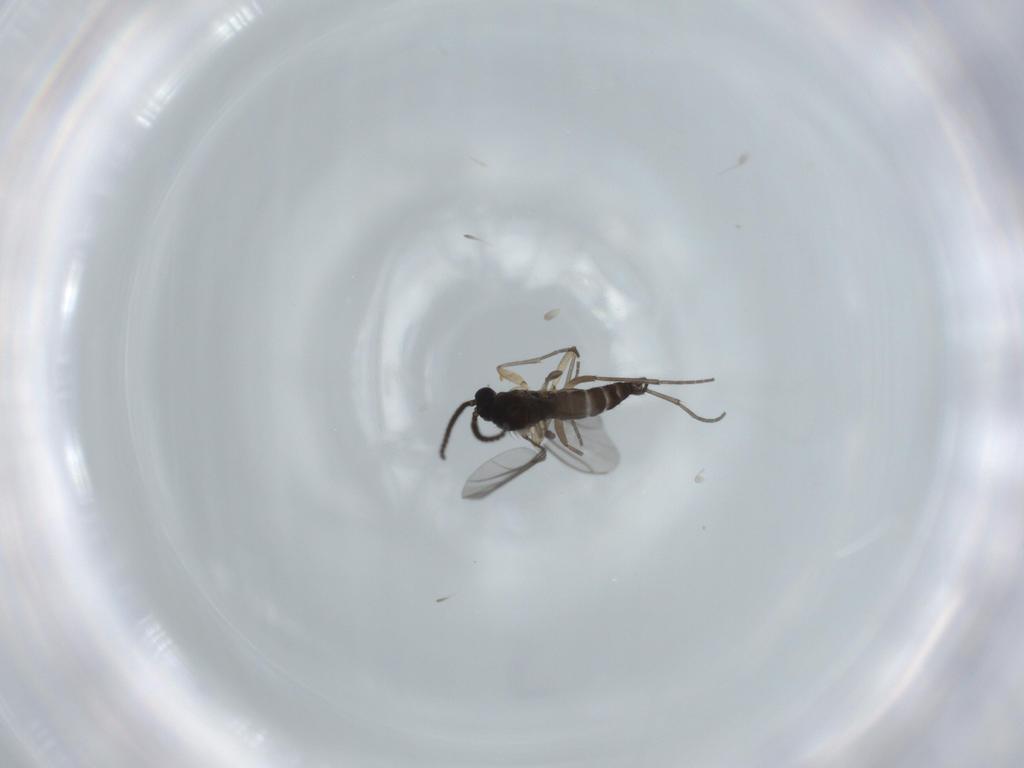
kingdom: Animalia
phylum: Arthropoda
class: Insecta
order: Diptera
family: Sciaridae
